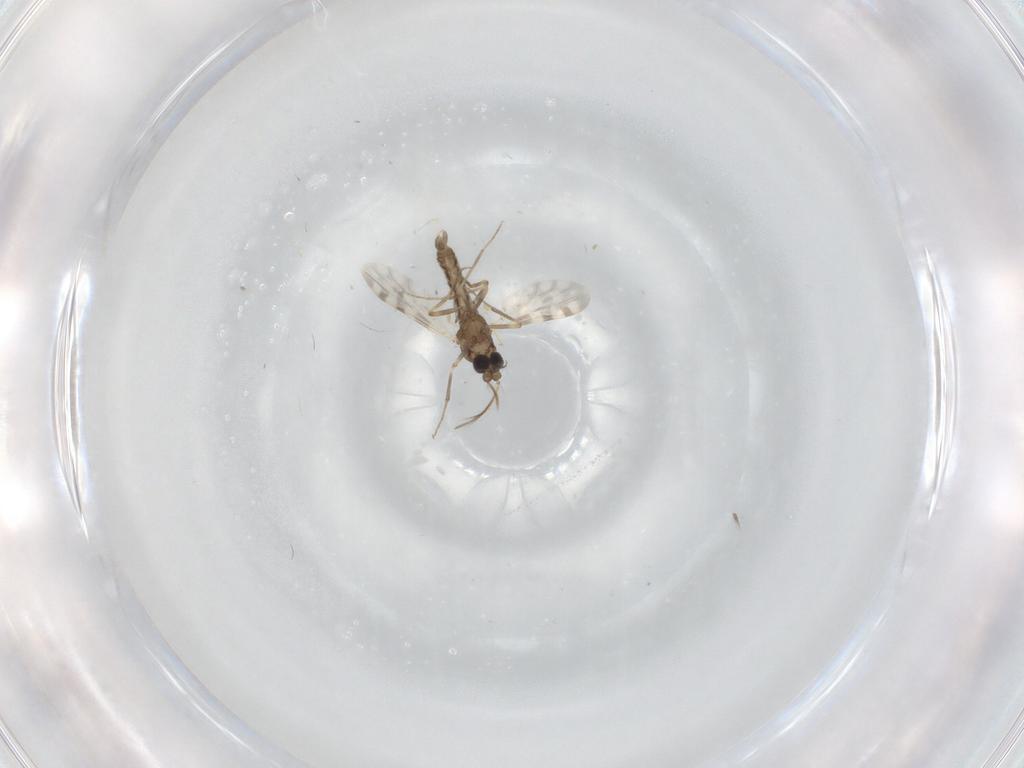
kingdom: Animalia
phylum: Arthropoda
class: Insecta
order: Diptera
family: Ceratopogonidae
